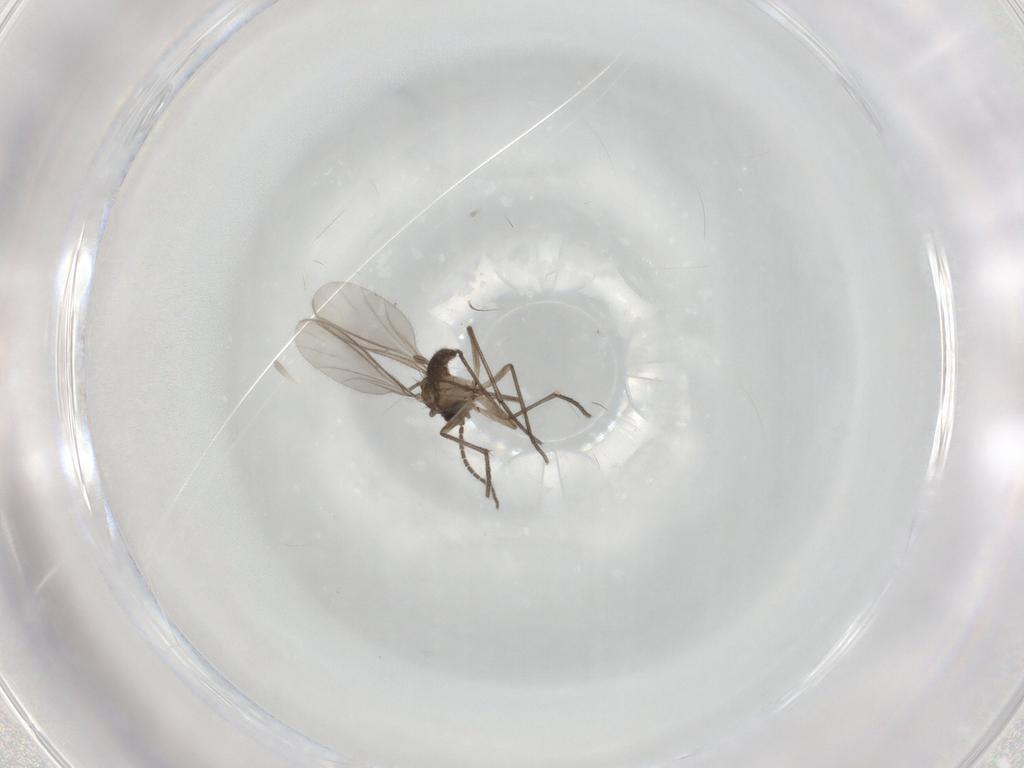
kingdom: Animalia
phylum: Arthropoda
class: Insecta
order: Diptera
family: Sciaridae
